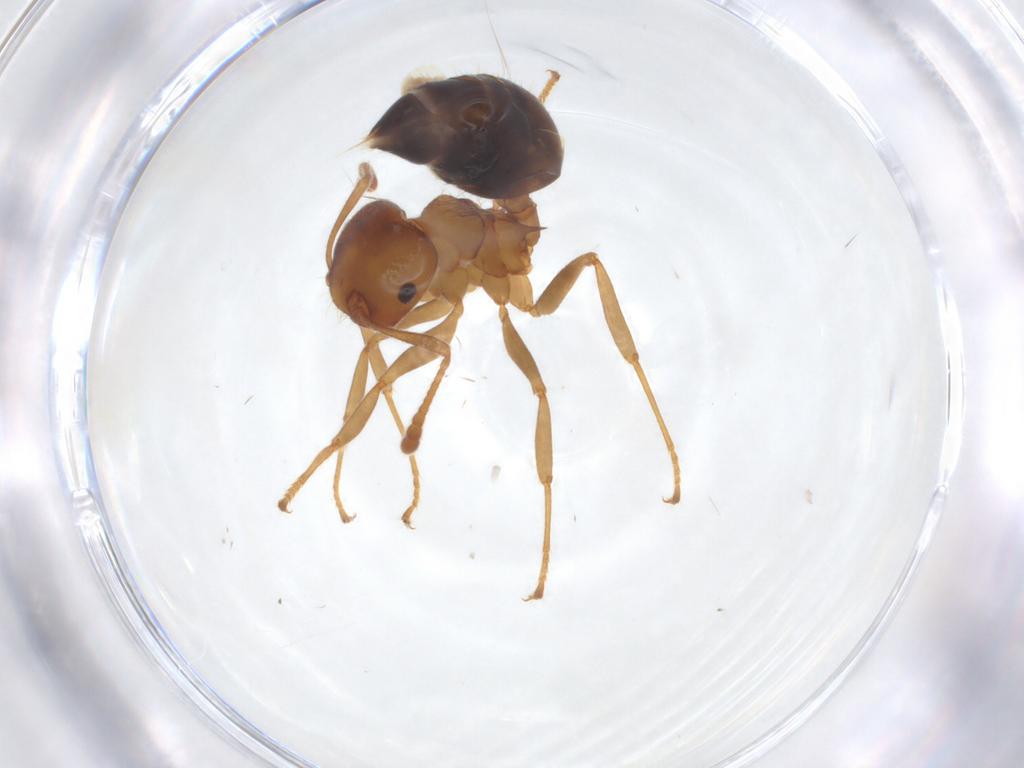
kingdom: Animalia
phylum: Arthropoda
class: Insecta
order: Hymenoptera
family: Formicidae
